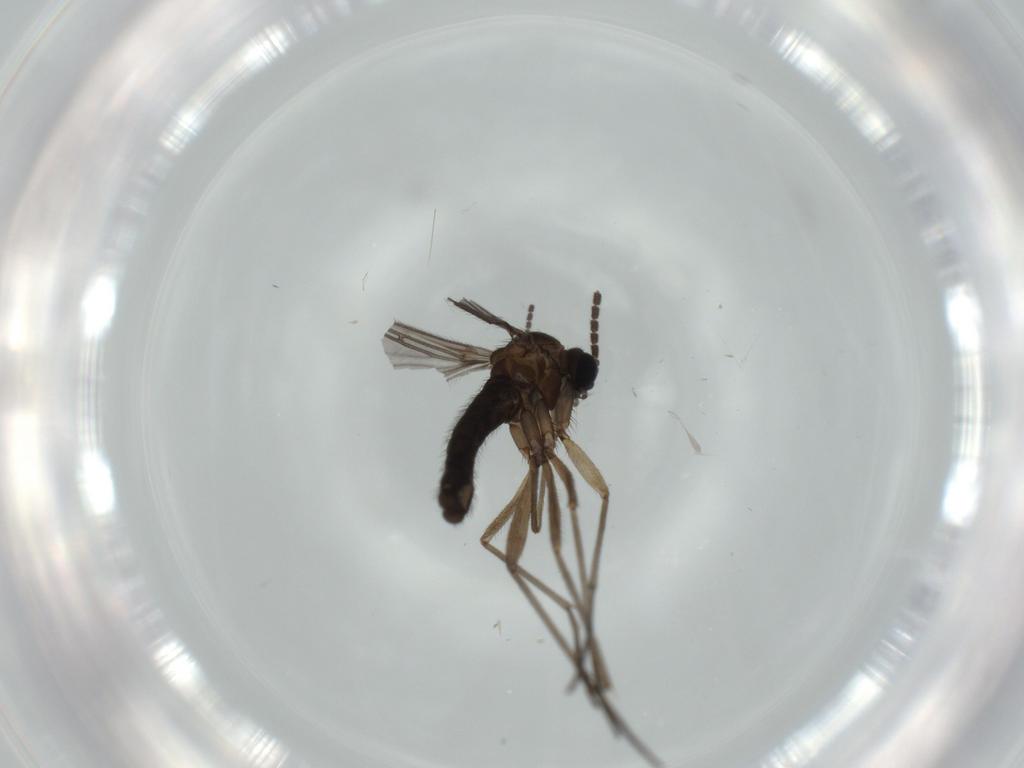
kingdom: Animalia
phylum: Arthropoda
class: Insecta
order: Diptera
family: Sciaridae
